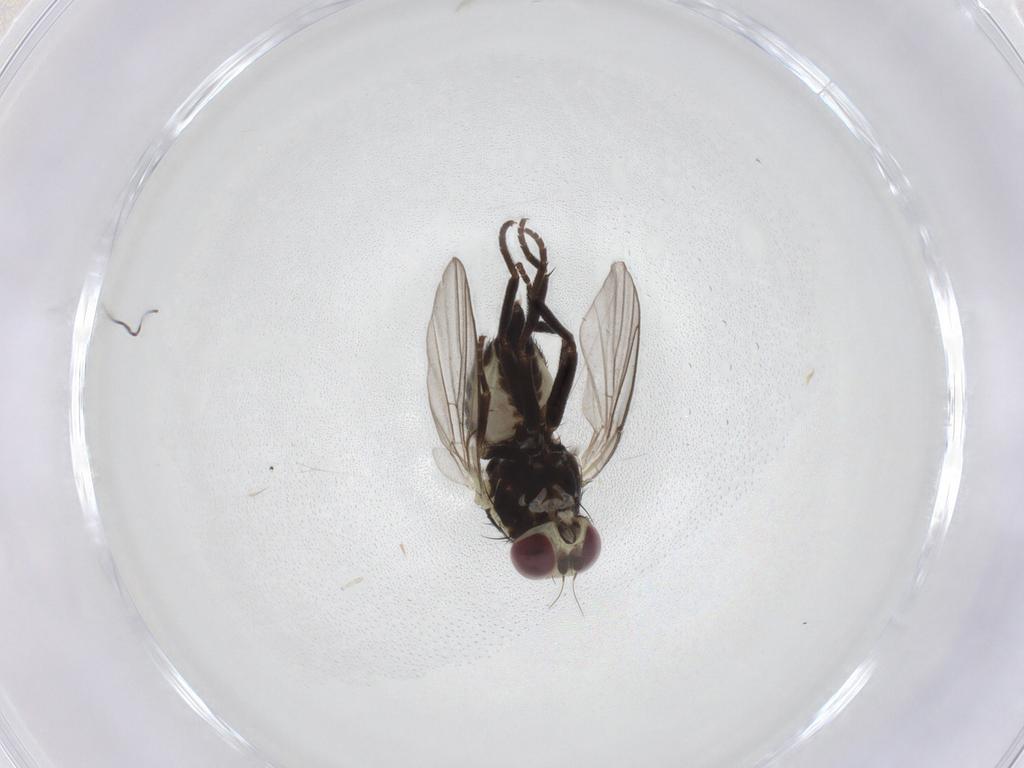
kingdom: Animalia
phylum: Arthropoda
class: Insecta
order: Diptera
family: Agromyzidae
